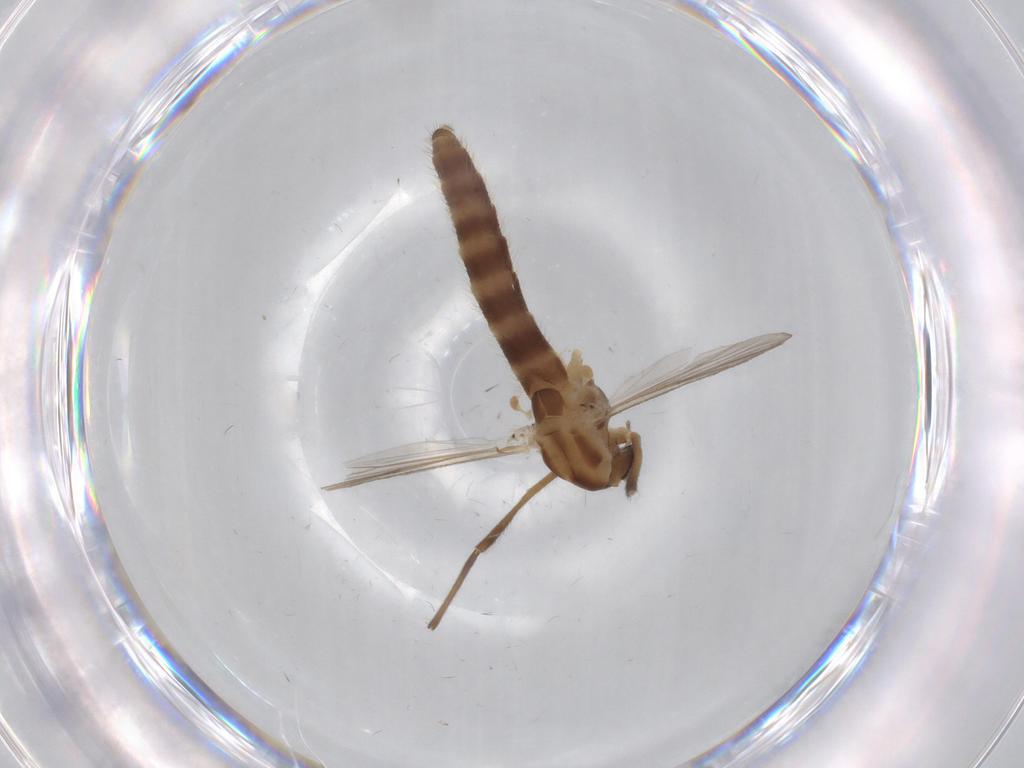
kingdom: Animalia
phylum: Arthropoda
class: Insecta
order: Diptera
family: Chironomidae
